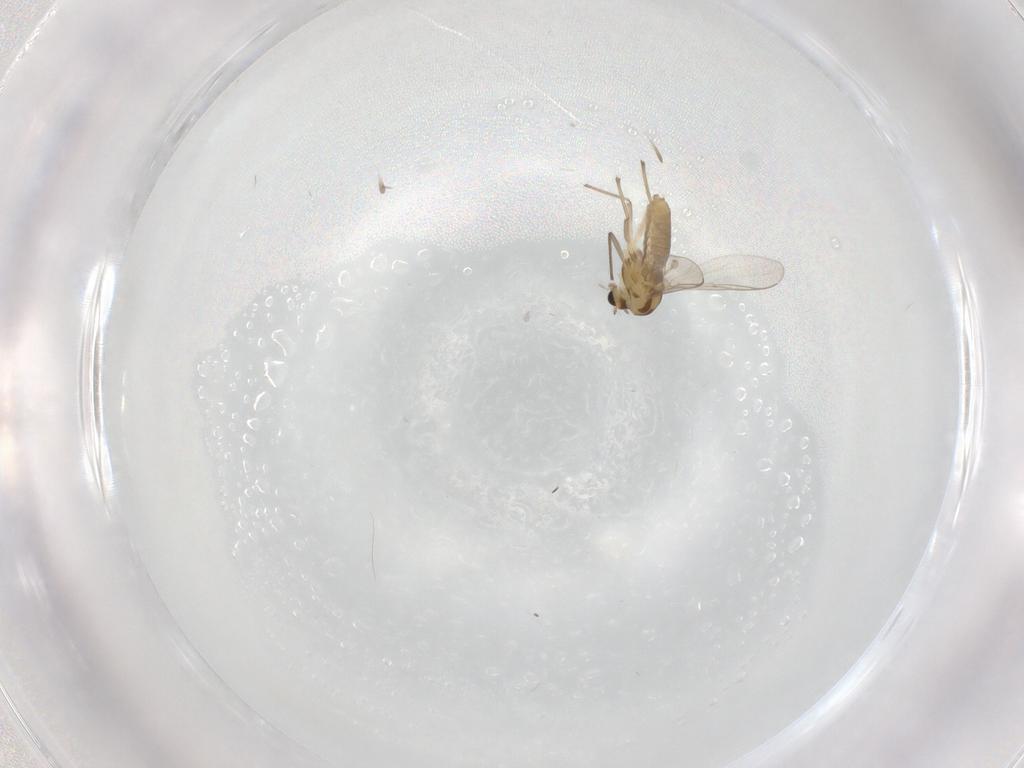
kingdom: Animalia
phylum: Arthropoda
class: Insecta
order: Diptera
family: Chironomidae
